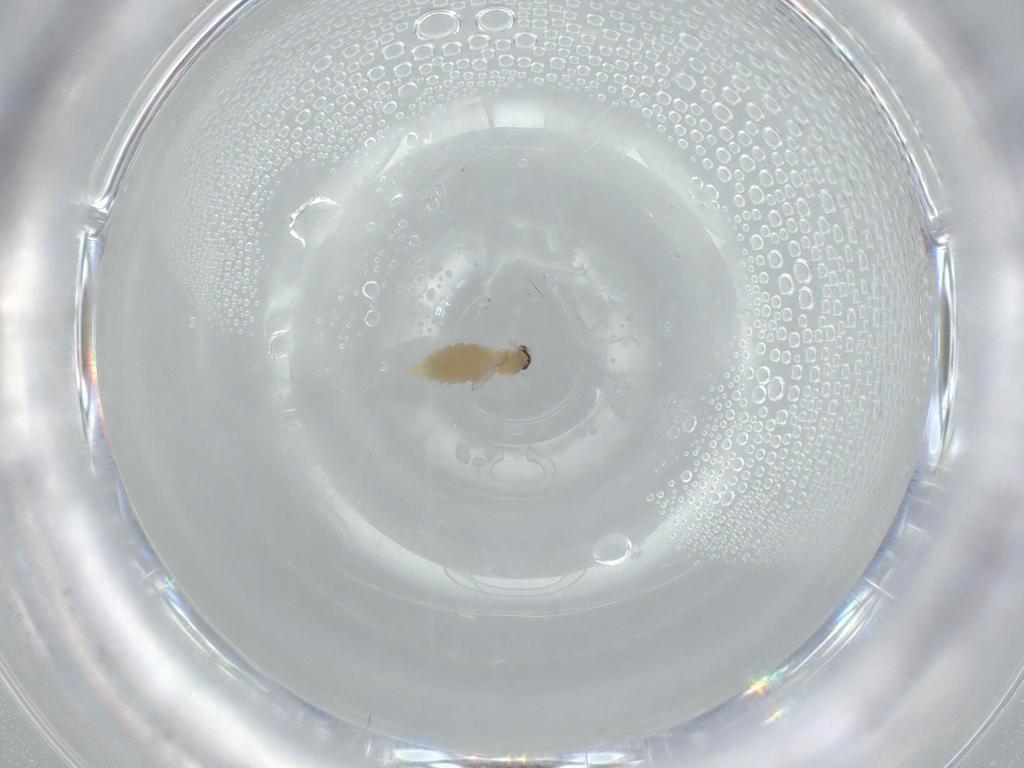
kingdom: Animalia
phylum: Arthropoda
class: Insecta
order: Diptera
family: Cecidomyiidae
